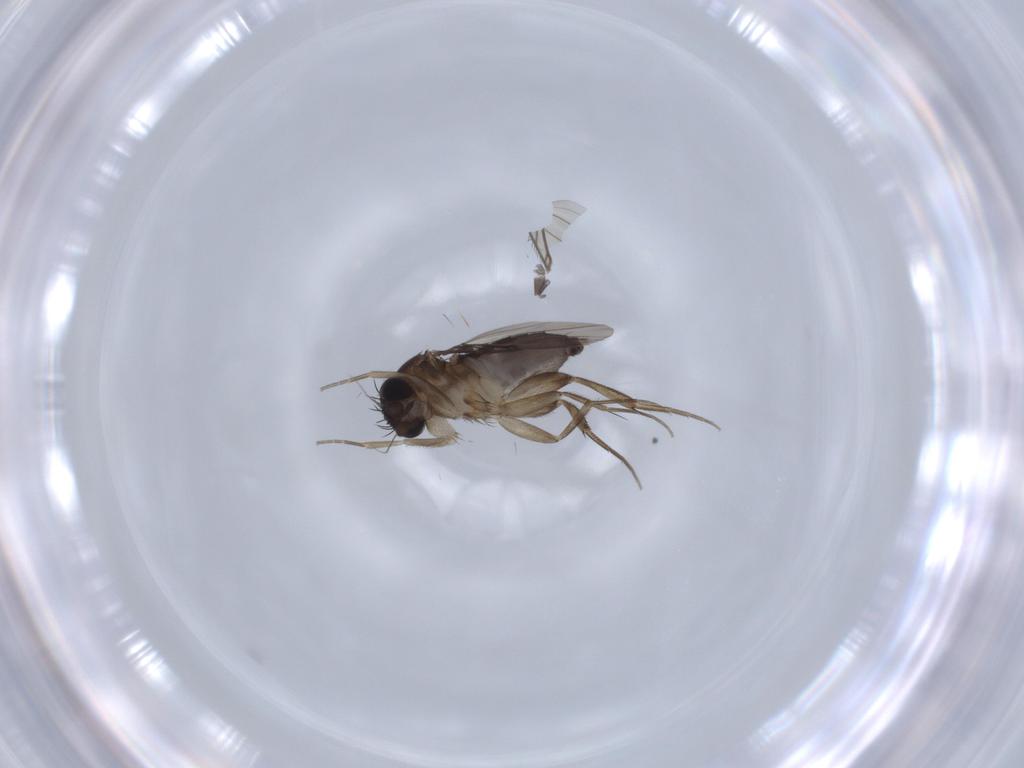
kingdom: Animalia
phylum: Arthropoda
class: Insecta
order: Diptera
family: Phoridae
